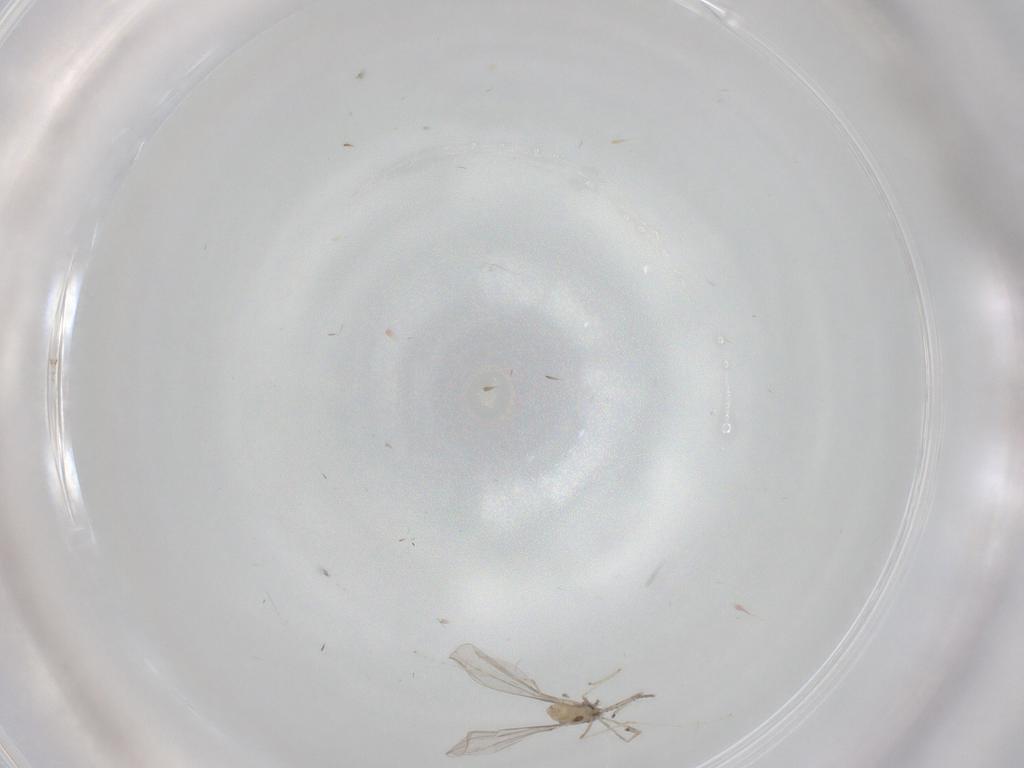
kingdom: Animalia
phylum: Arthropoda
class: Insecta
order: Diptera
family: Cecidomyiidae
